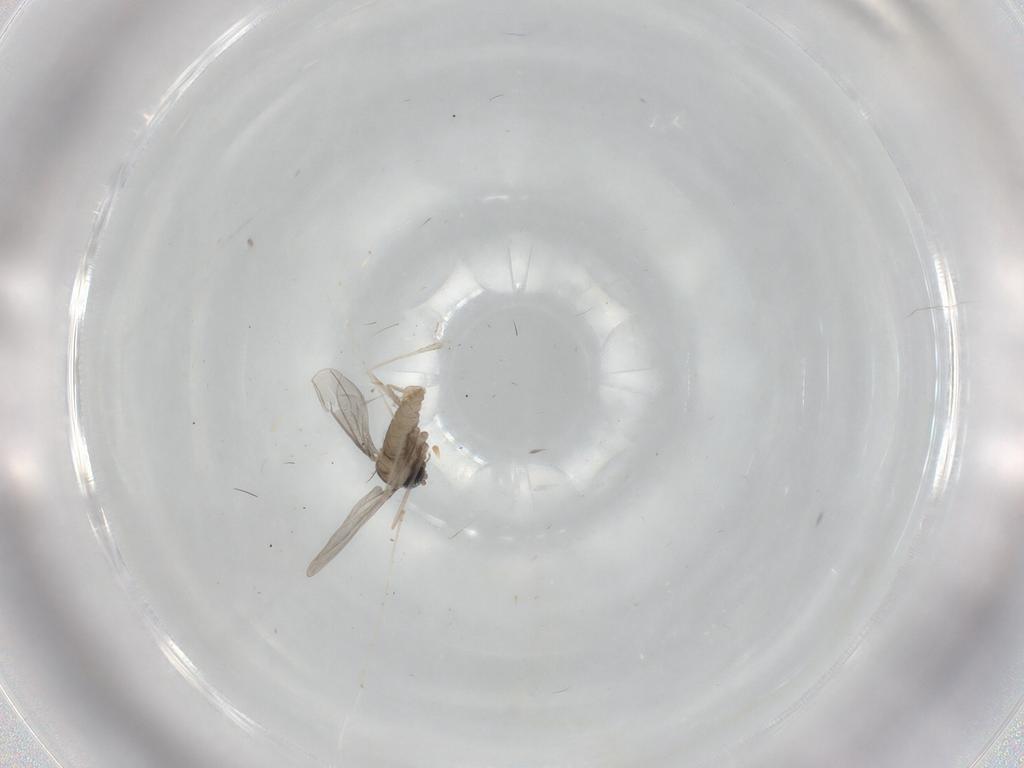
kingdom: Animalia
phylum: Arthropoda
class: Insecta
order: Diptera
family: Cecidomyiidae
